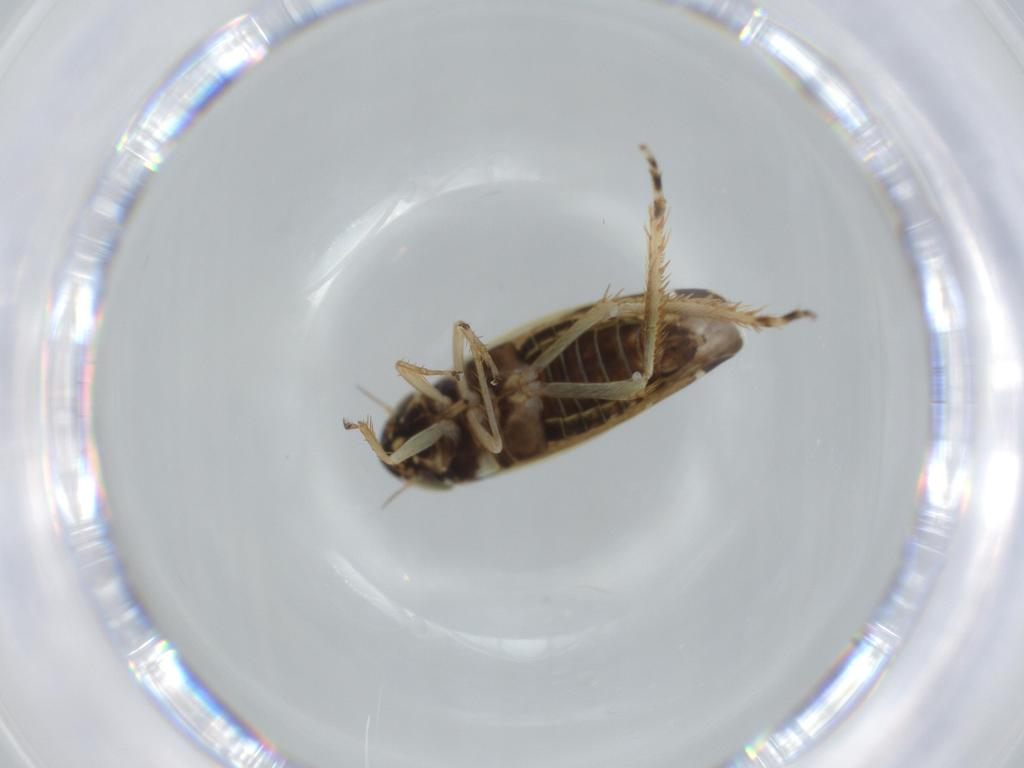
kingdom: Animalia
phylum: Arthropoda
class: Insecta
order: Hemiptera
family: Cicadellidae
